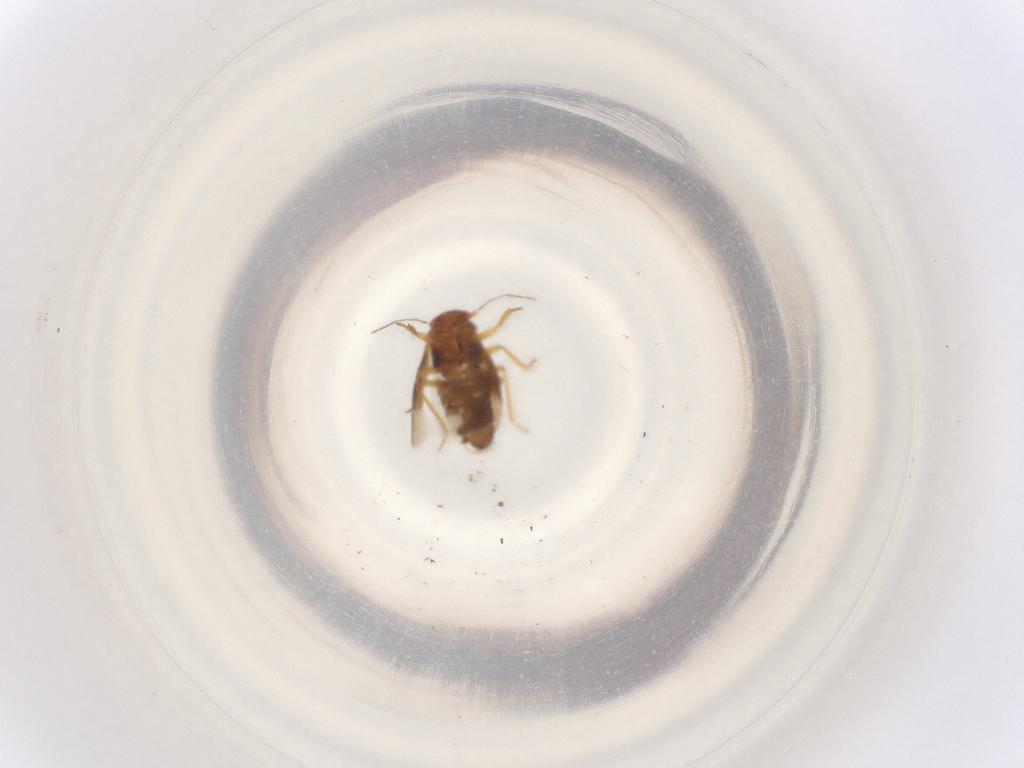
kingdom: Animalia
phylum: Arthropoda
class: Insecta
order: Hemiptera
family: Schizopteridae
